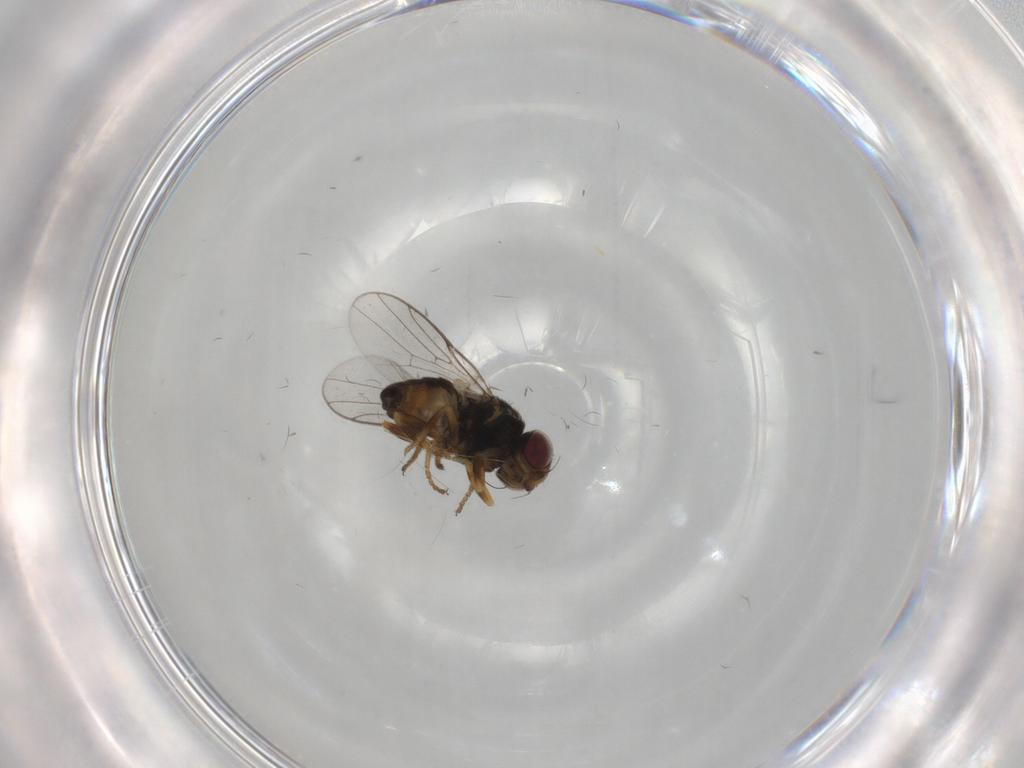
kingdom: Animalia
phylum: Arthropoda
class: Insecta
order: Diptera
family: Chloropidae
